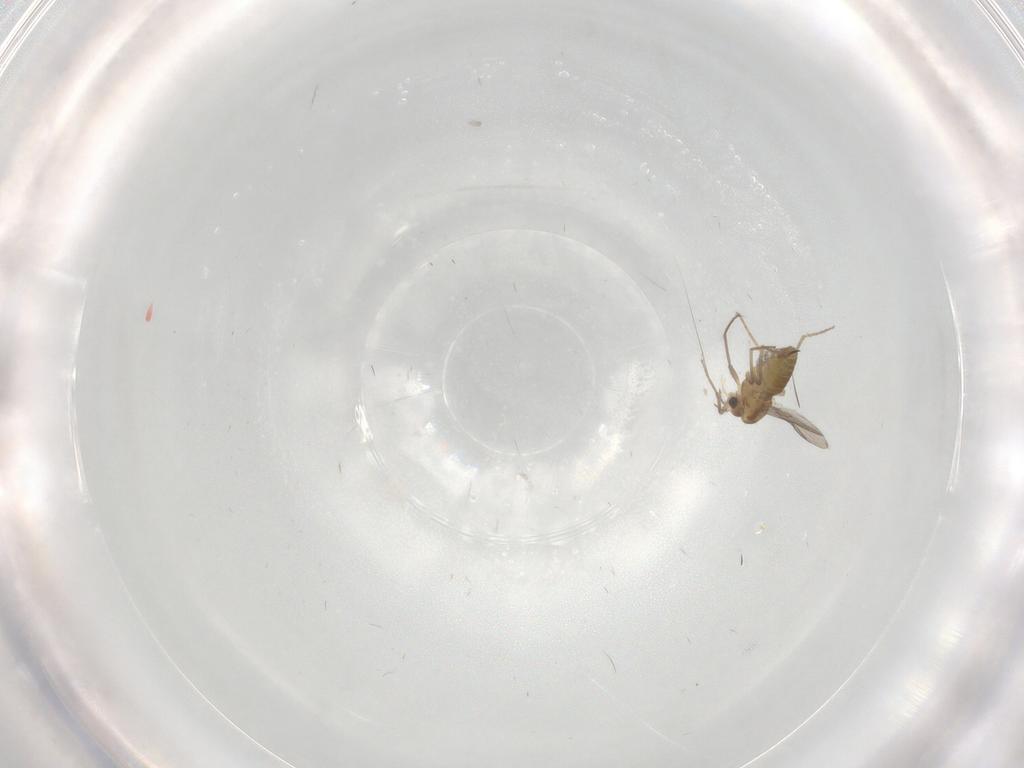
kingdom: Animalia
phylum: Arthropoda
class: Insecta
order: Diptera
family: Chironomidae
